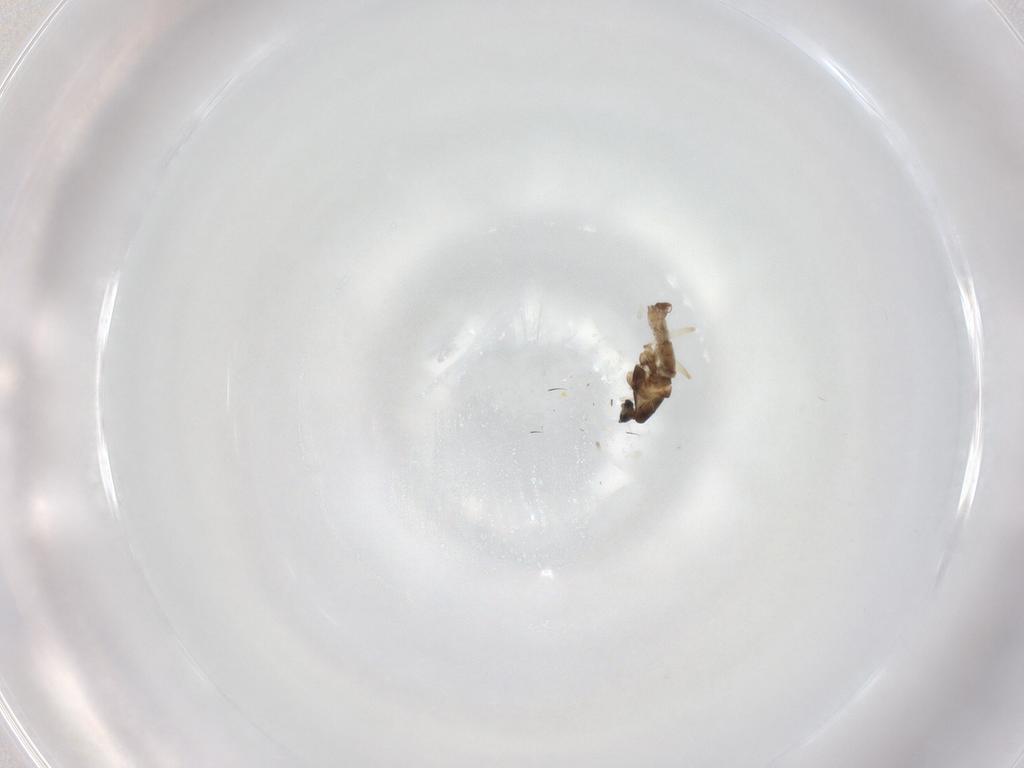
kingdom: Animalia
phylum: Arthropoda
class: Insecta
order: Diptera
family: Cecidomyiidae
